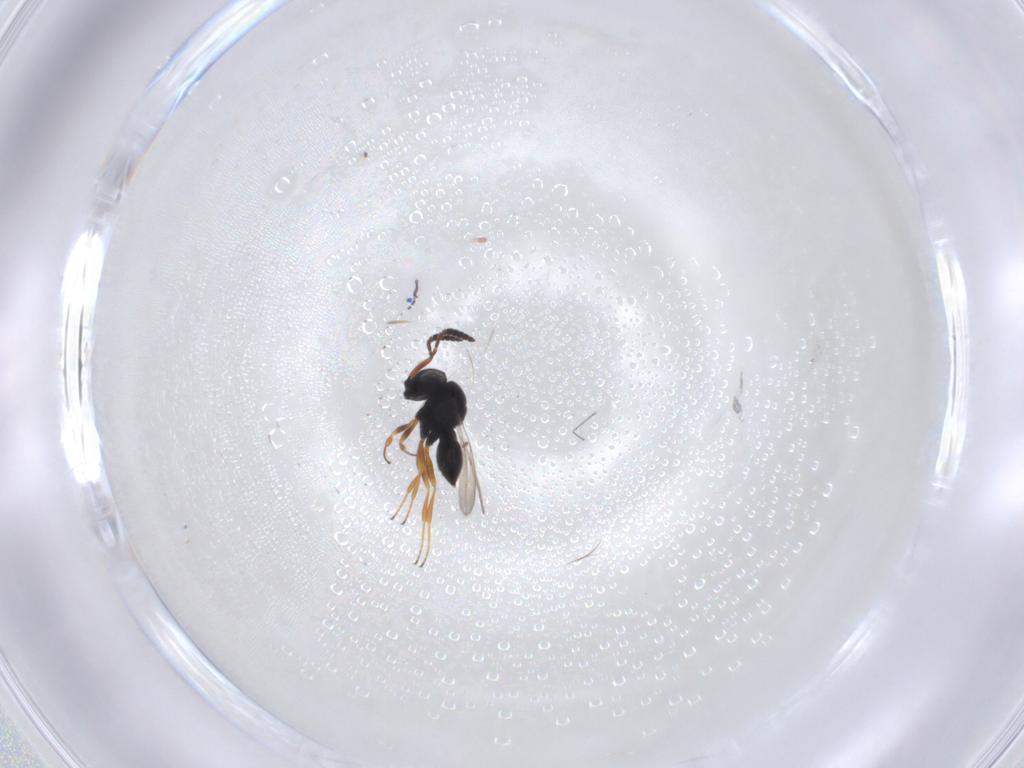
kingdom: Animalia
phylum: Arthropoda
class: Insecta
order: Hymenoptera
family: Scelionidae
